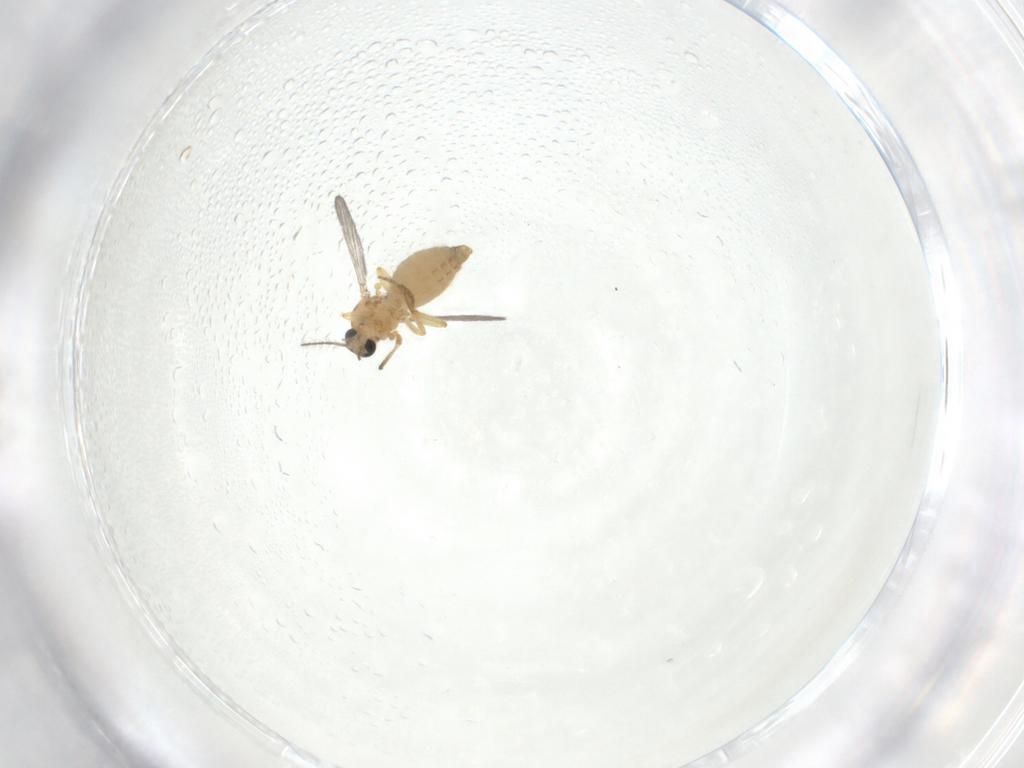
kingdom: Animalia
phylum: Arthropoda
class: Insecta
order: Diptera
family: Ceratopogonidae
